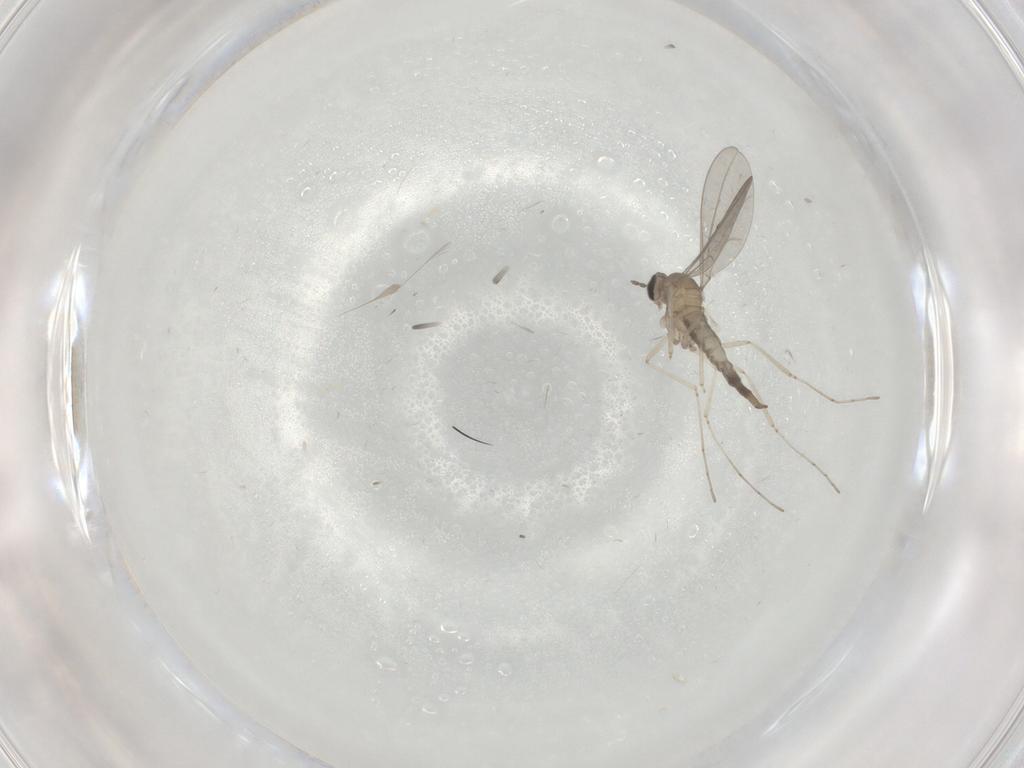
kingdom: Animalia
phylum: Arthropoda
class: Insecta
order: Diptera
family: Cecidomyiidae
